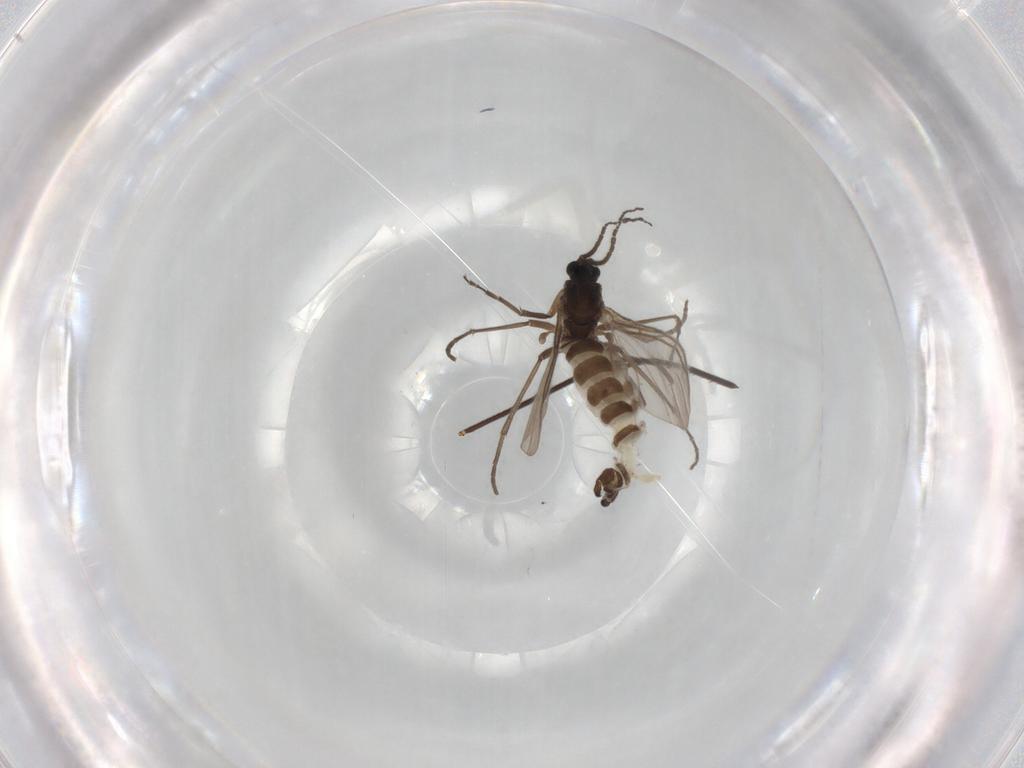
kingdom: Animalia
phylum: Arthropoda
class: Insecta
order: Diptera
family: Sciaridae
